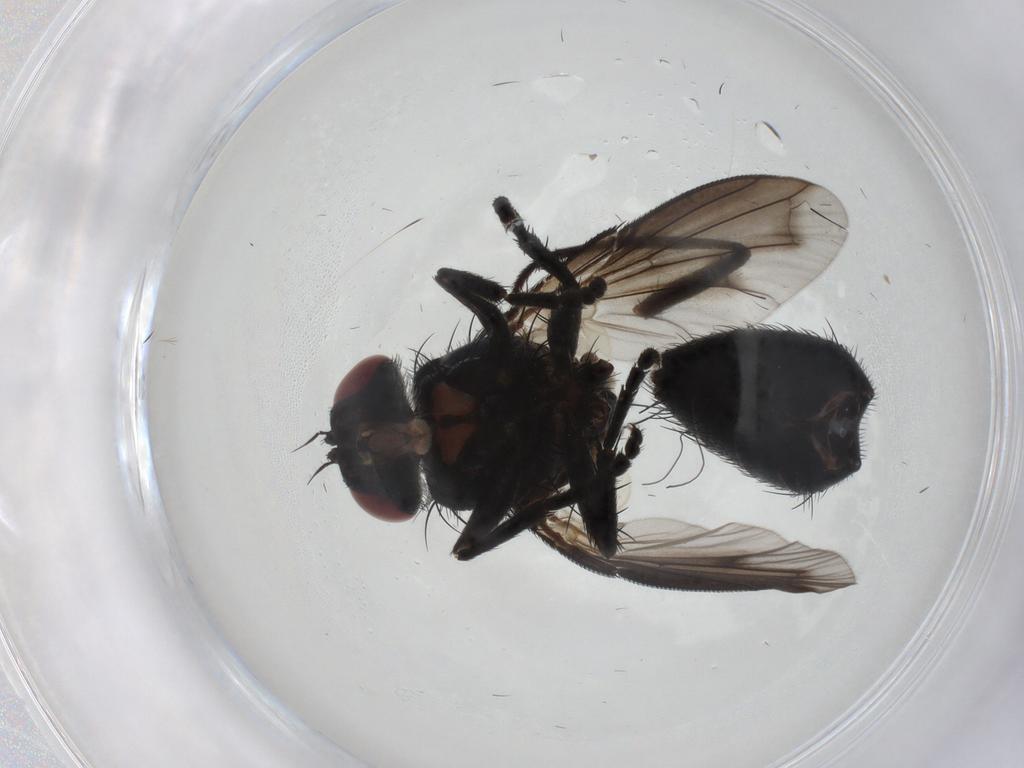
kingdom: Animalia
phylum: Arthropoda
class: Insecta
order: Diptera
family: Tachinidae
